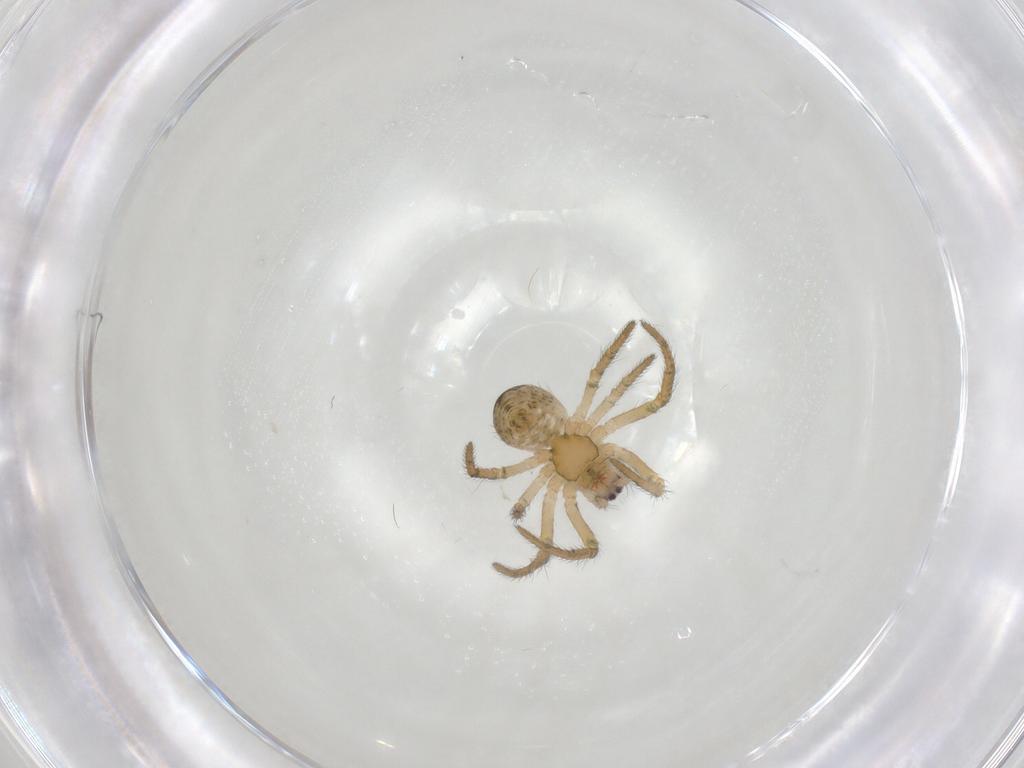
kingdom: Animalia
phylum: Arthropoda
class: Arachnida
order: Araneae
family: Araneidae
